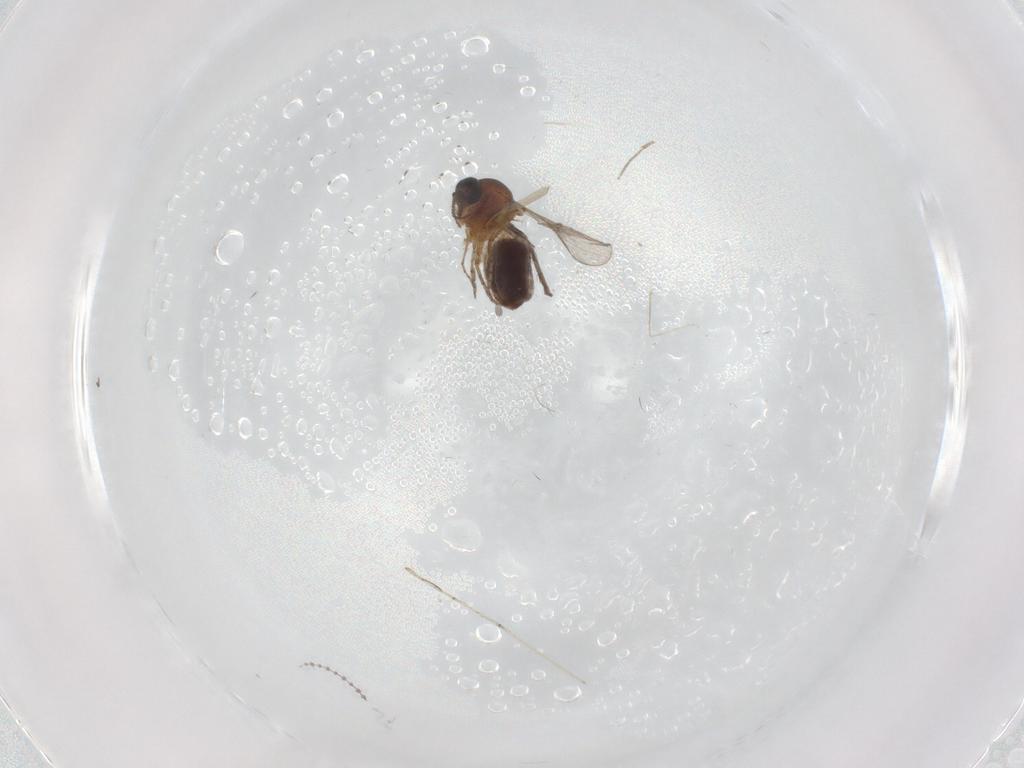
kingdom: Animalia
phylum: Arthropoda
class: Insecta
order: Diptera
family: Ceratopogonidae
